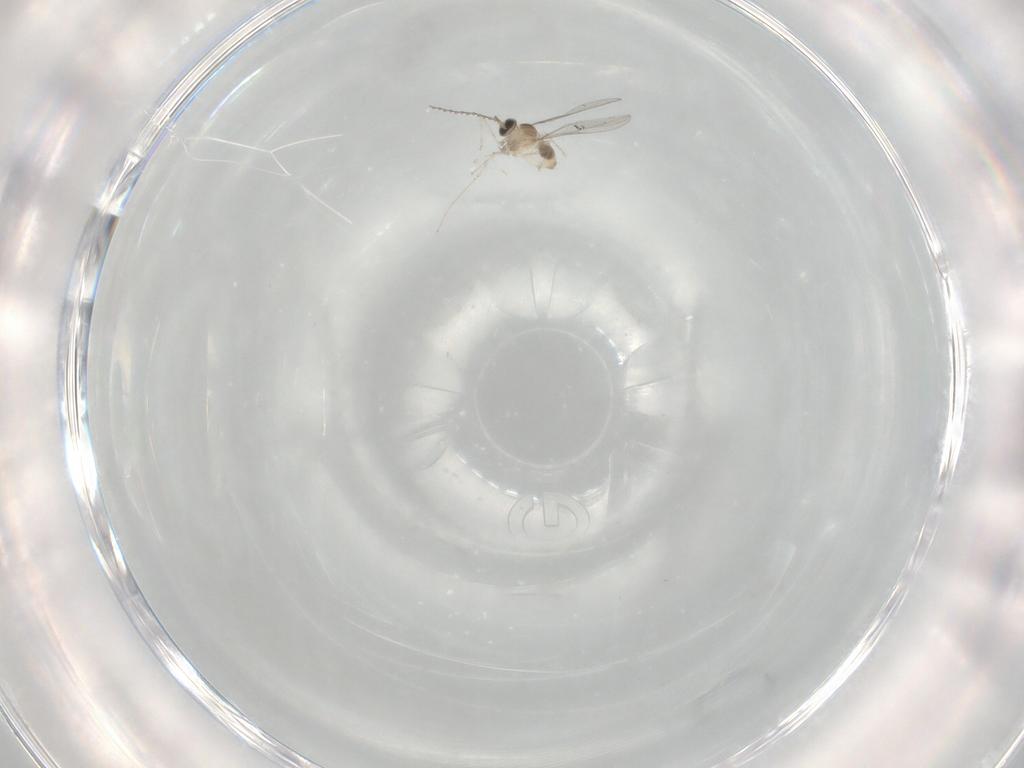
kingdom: Animalia
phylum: Arthropoda
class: Insecta
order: Diptera
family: Cecidomyiidae
